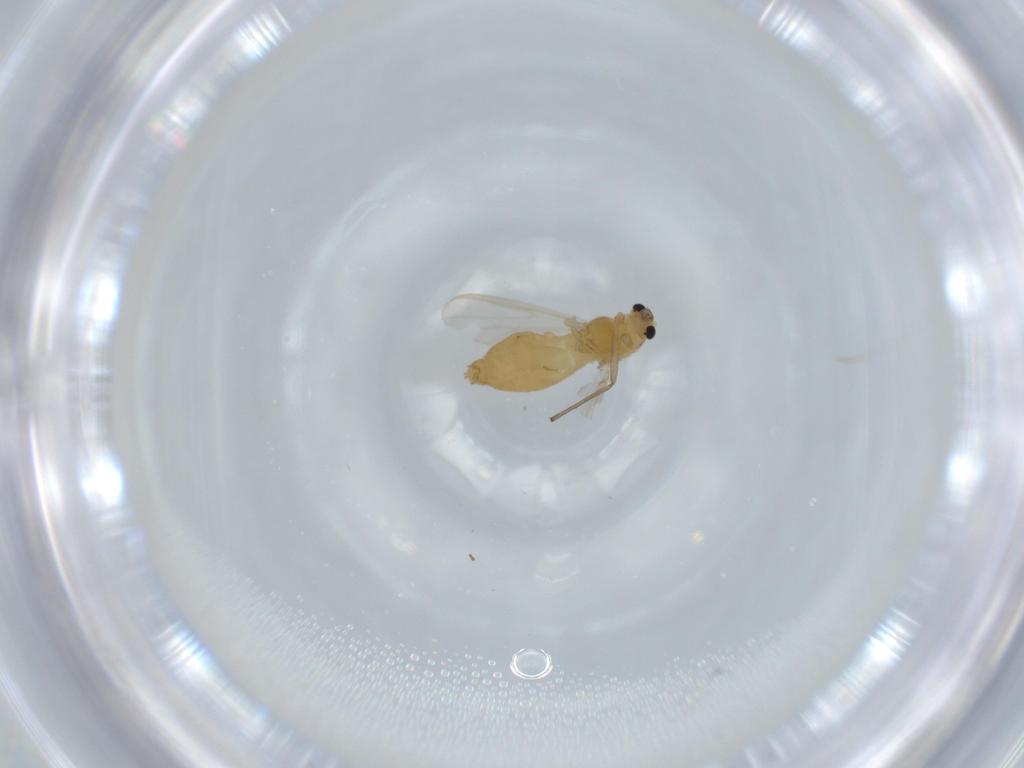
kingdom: Animalia
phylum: Arthropoda
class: Insecta
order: Diptera
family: Chironomidae
